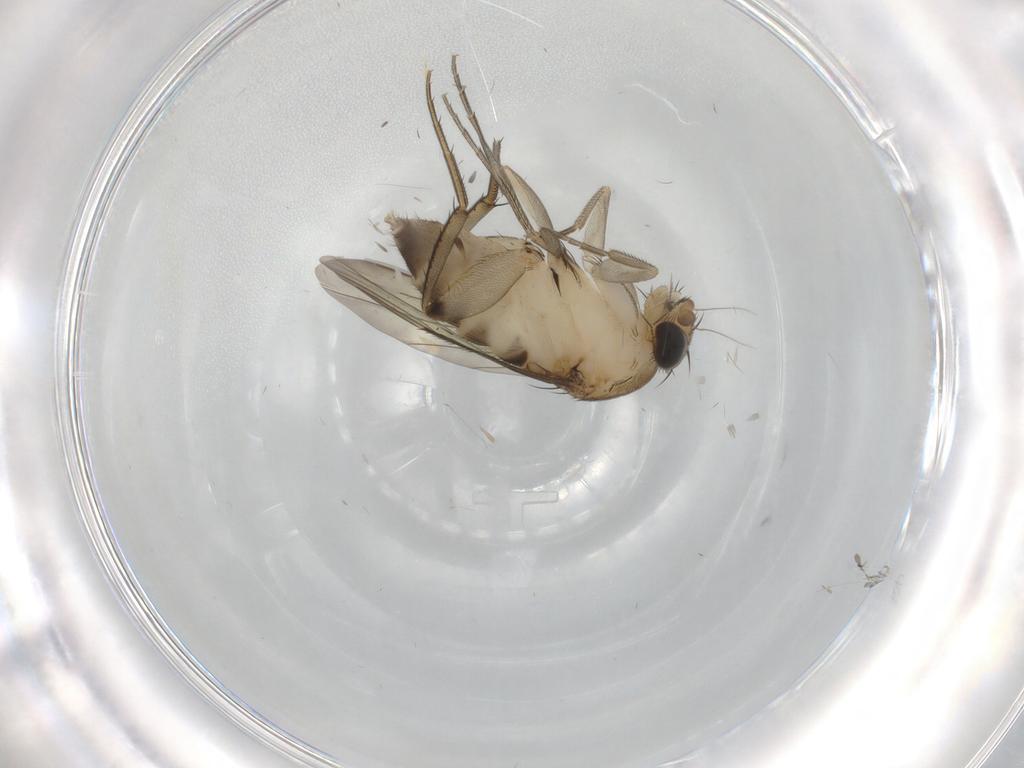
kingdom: Animalia
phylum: Arthropoda
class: Insecta
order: Diptera
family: Phoridae
